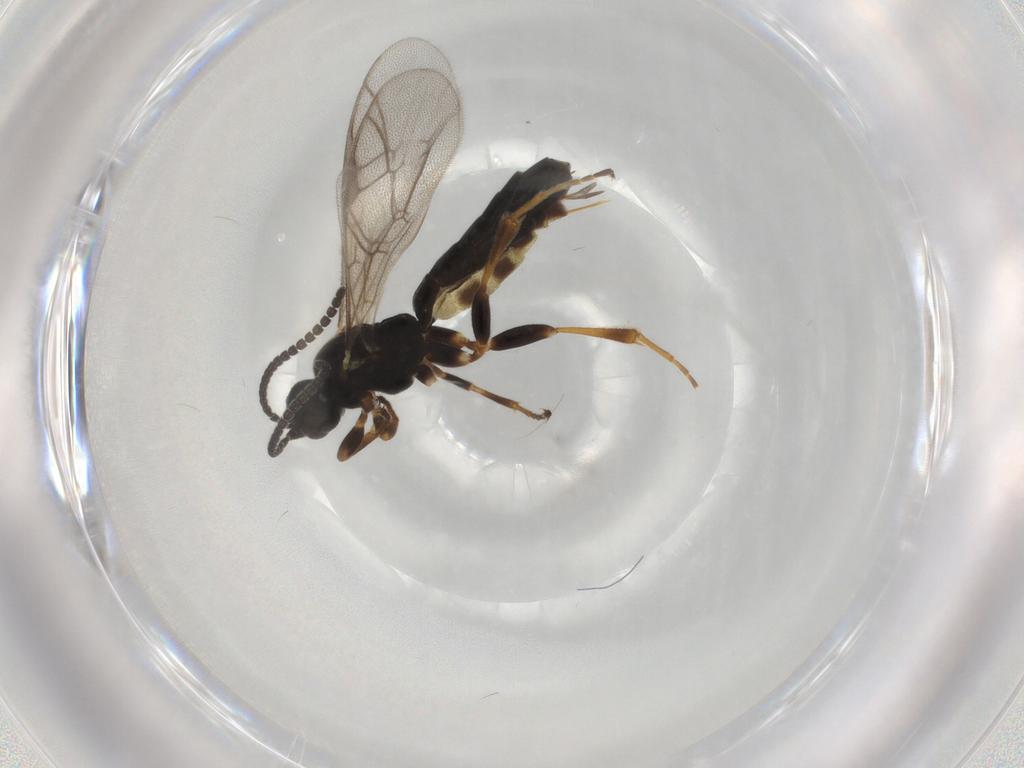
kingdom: Animalia
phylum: Arthropoda
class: Insecta
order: Hymenoptera
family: Ichneumonidae
